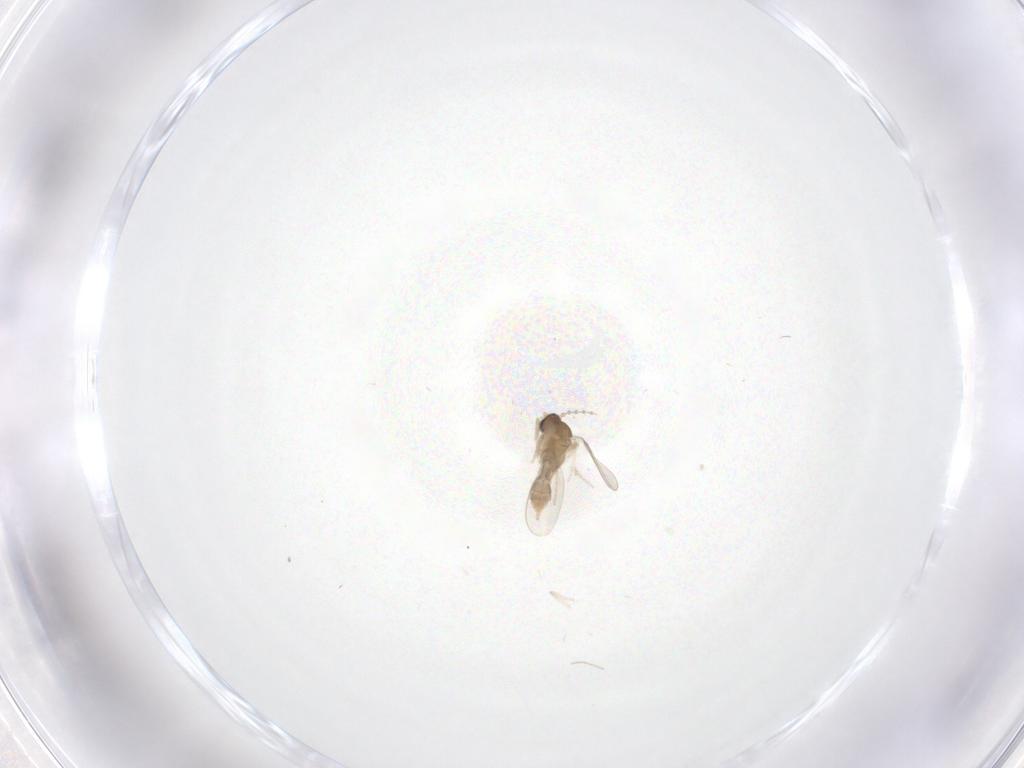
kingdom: Animalia
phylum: Arthropoda
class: Insecta
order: Diptera
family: Cecidomyiidae
